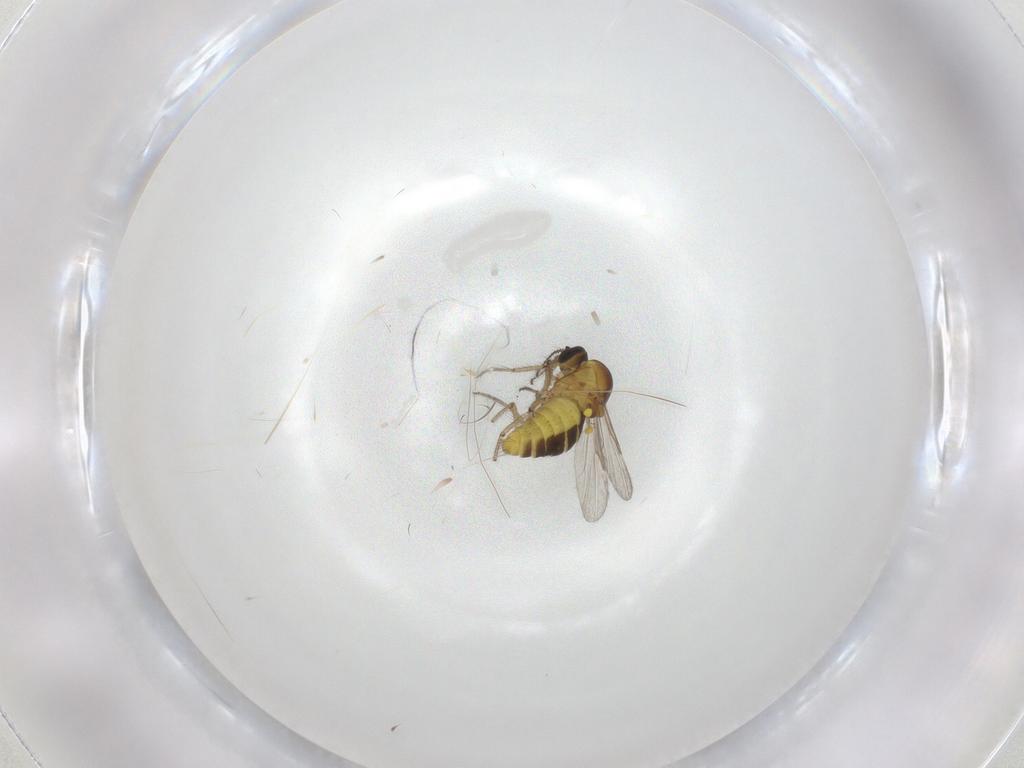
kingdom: Animalia
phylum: Arthropoda
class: Insecta
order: Diptera
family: Ceratopogonidae
